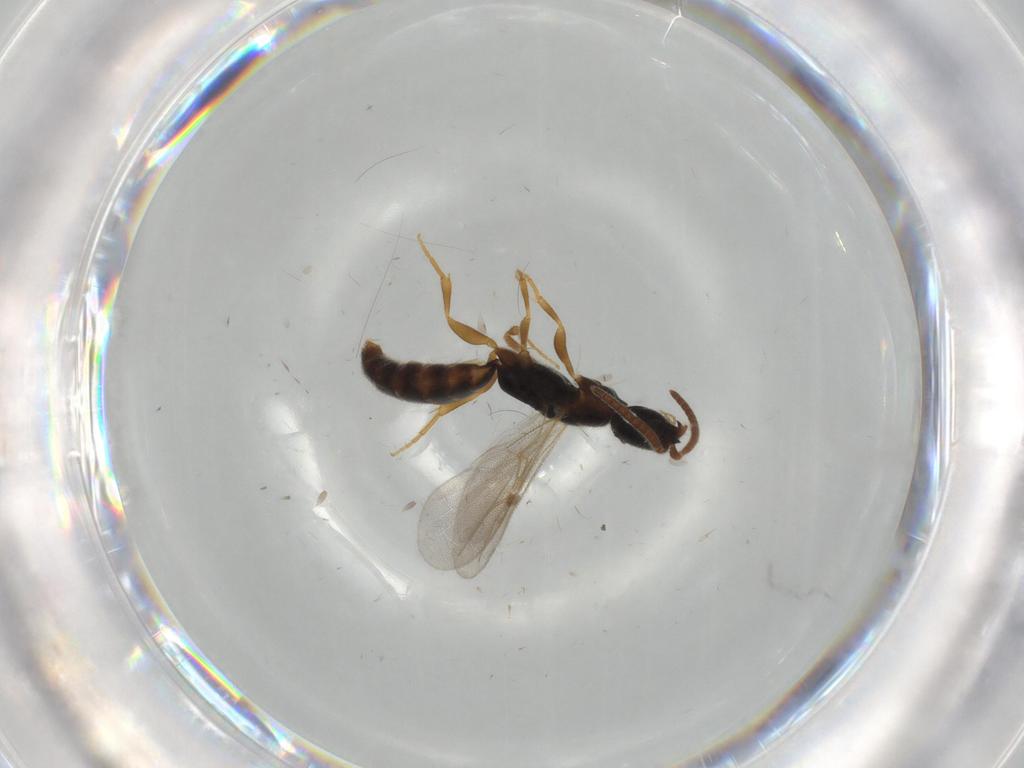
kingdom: Animalia
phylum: Arthropoda
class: Insecta
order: Hymenoptera
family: Bethylidae
